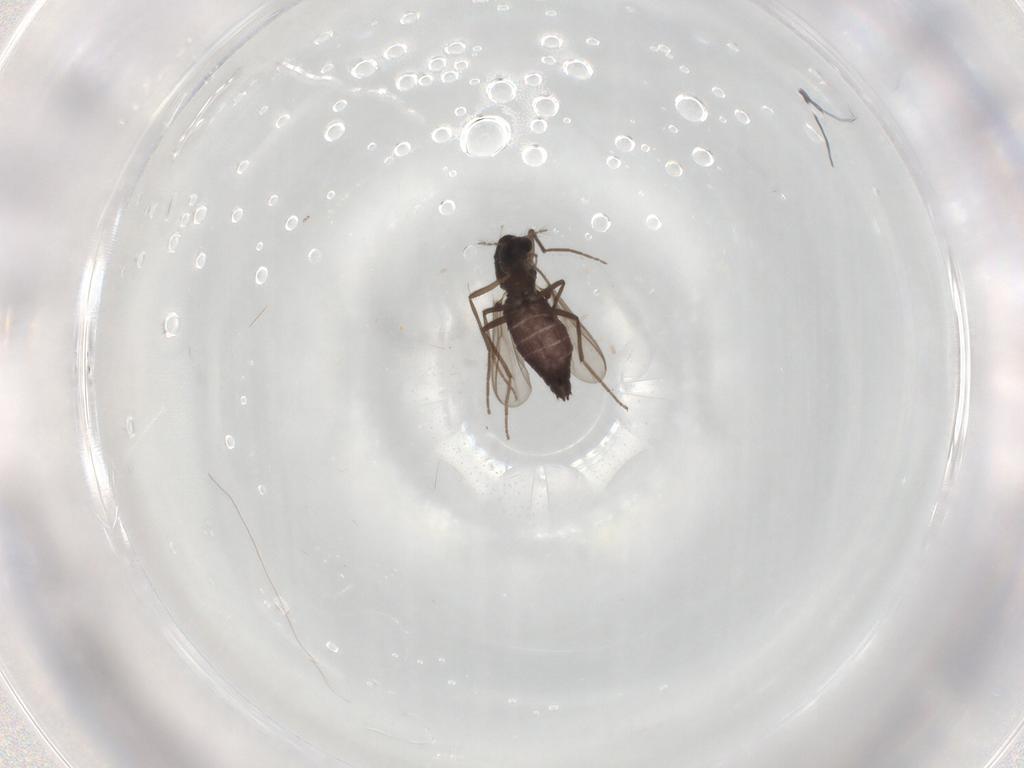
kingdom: Animalia
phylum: Arthropoda
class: Insecta
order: Diptera
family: Chironomidae
